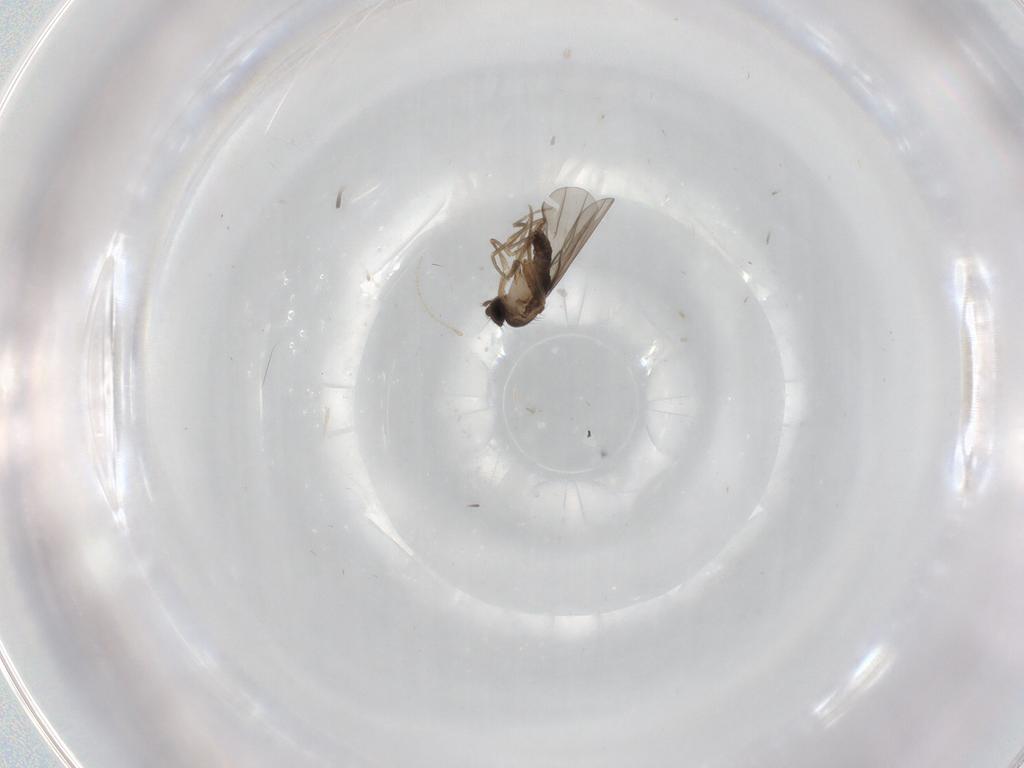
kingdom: Animalia
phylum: Arthropoda
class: Insecta
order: Diptera
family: Phoridae
